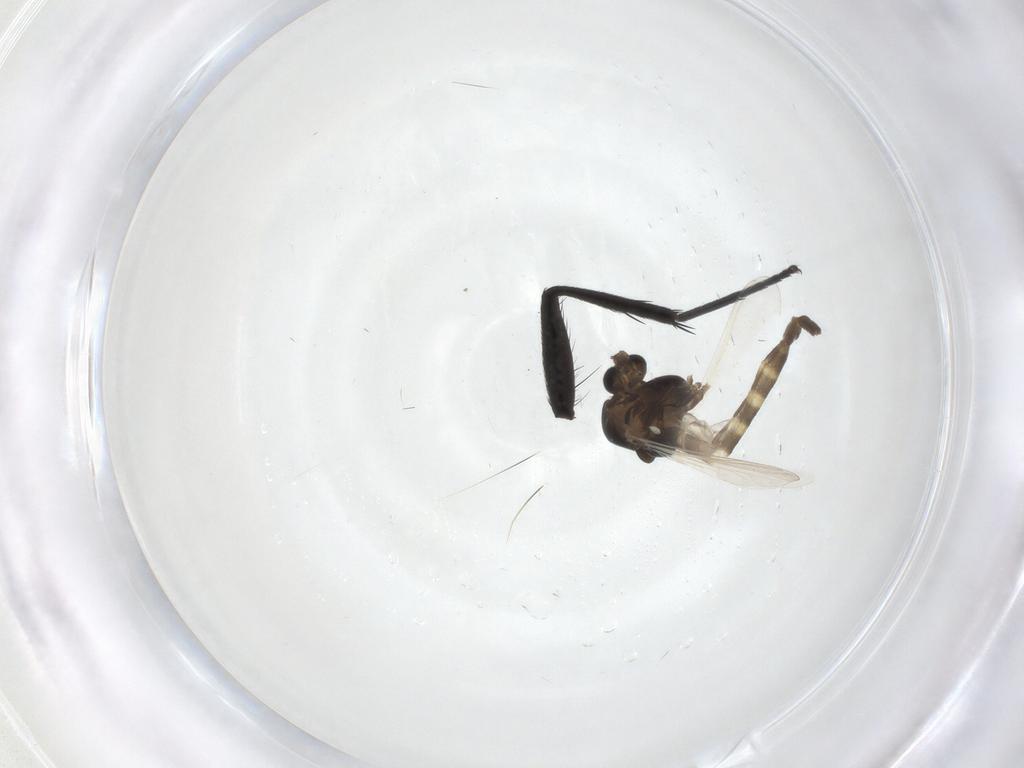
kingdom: Animalia
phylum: Arthropoda
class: Insecta
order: Diptera
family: Chironomidae
